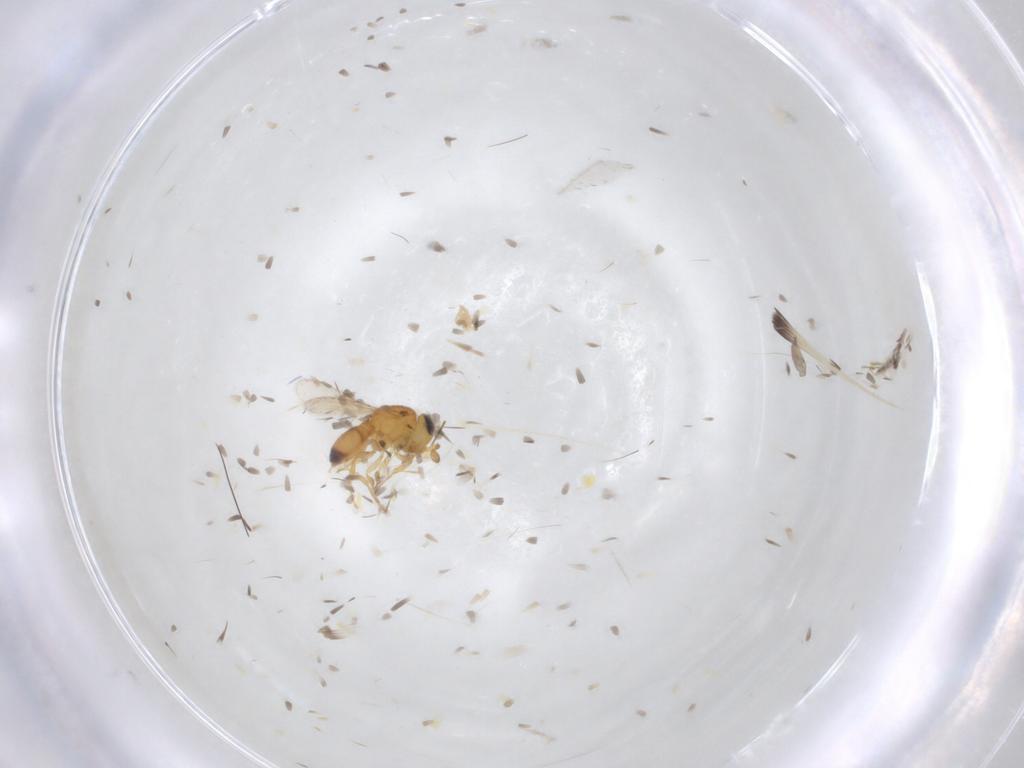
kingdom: Animalia
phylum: Arthropoda
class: Insecta
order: Hymenoptera
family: Scelionidae
